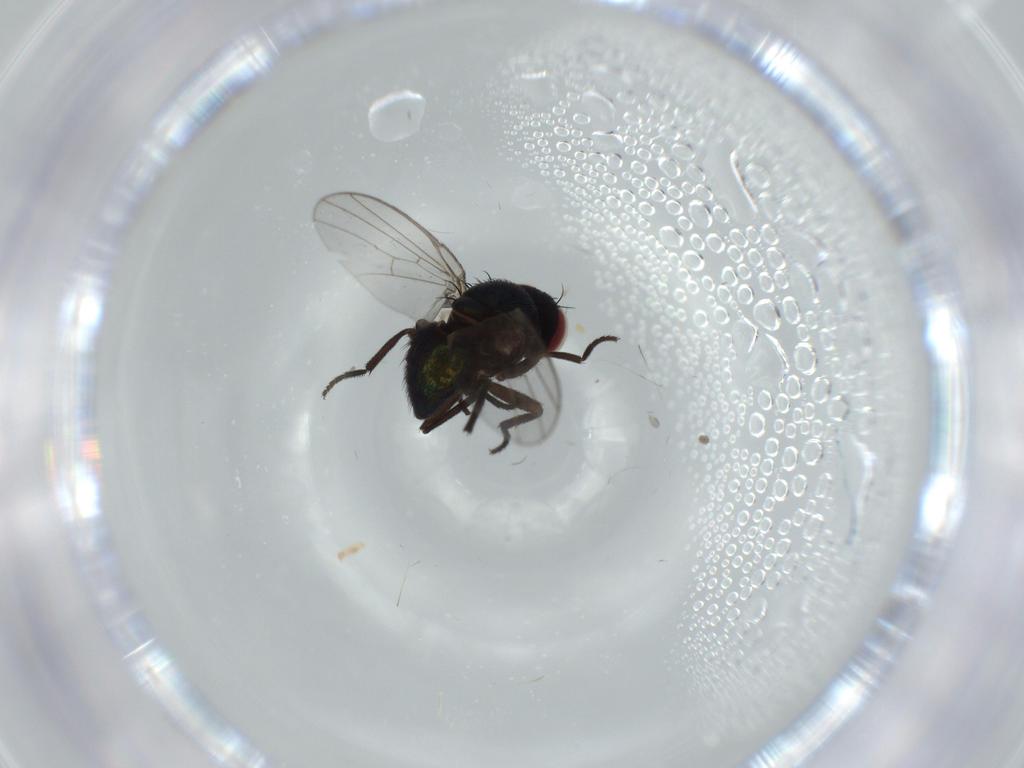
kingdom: Animalia
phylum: Arthropoda
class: Insecta
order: Diptera
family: Agromyzidae
